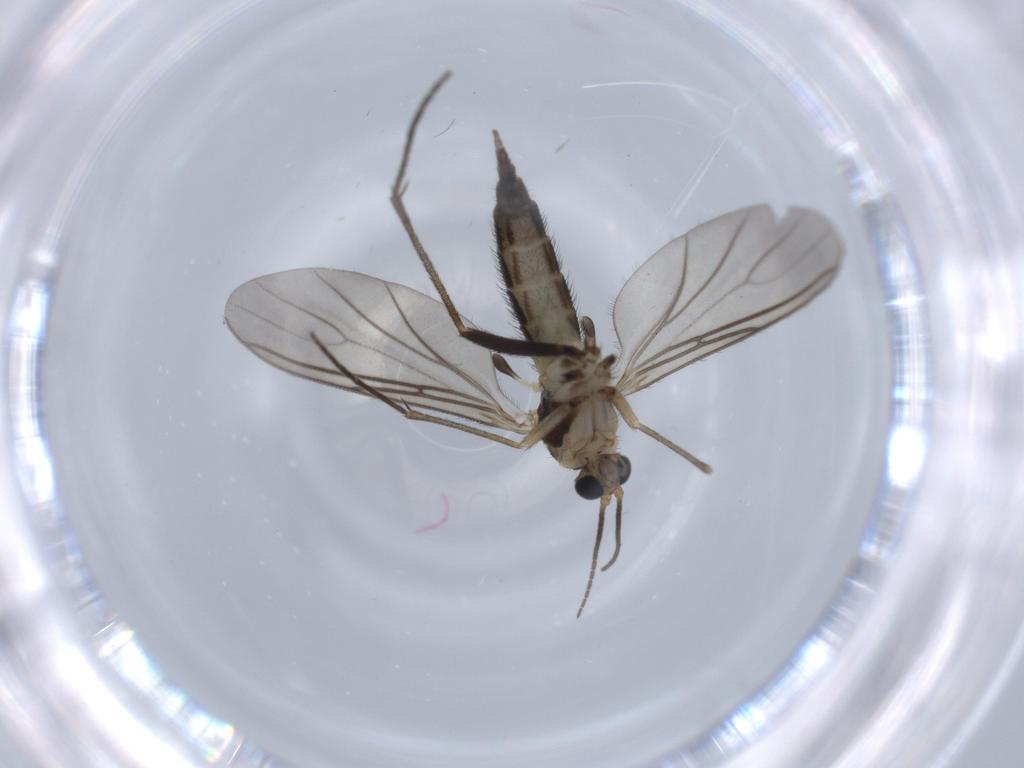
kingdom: Animalia
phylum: Arthropoda
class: Insecta
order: Diptera
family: Sciaridae
